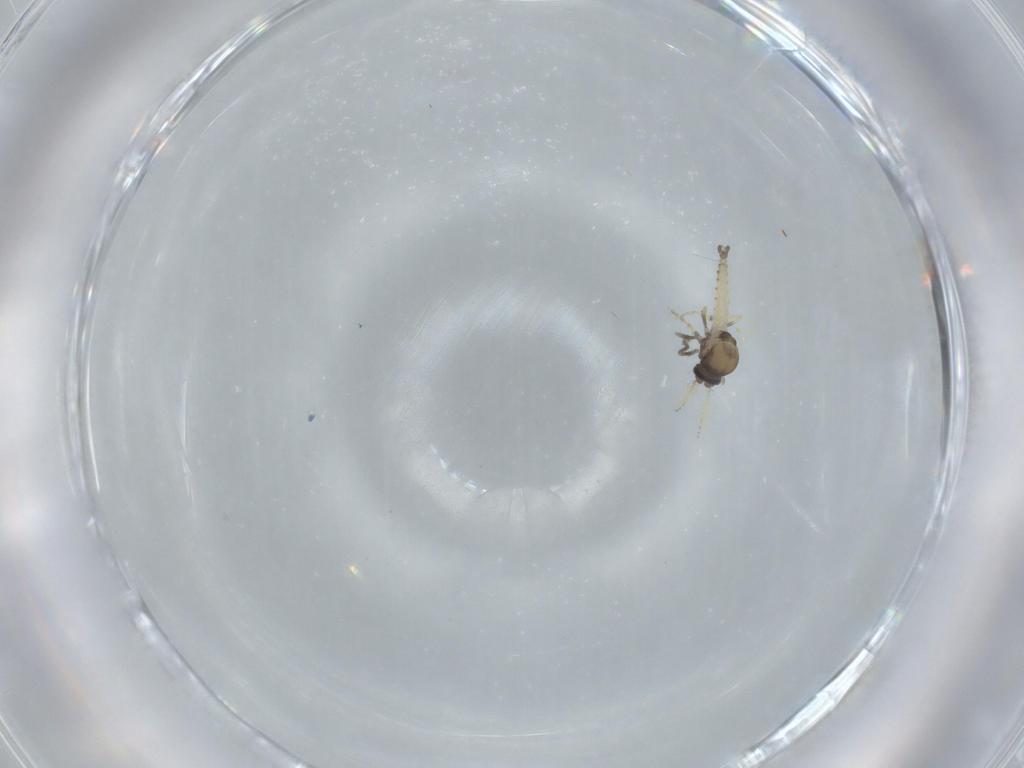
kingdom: Animalia
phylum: Arthropoda
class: Insecta
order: Diptera
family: Ceratopogonidae
